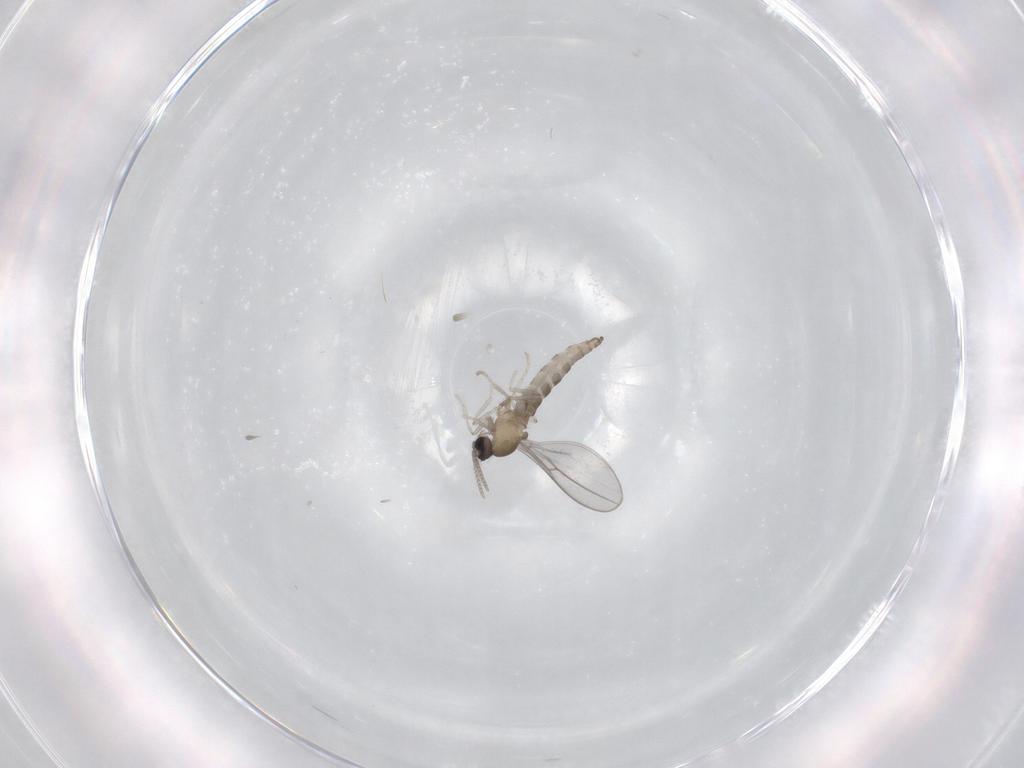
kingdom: Animalia
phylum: Arthropoda
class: Insecta
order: Diptera
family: Cecidomyiidae
